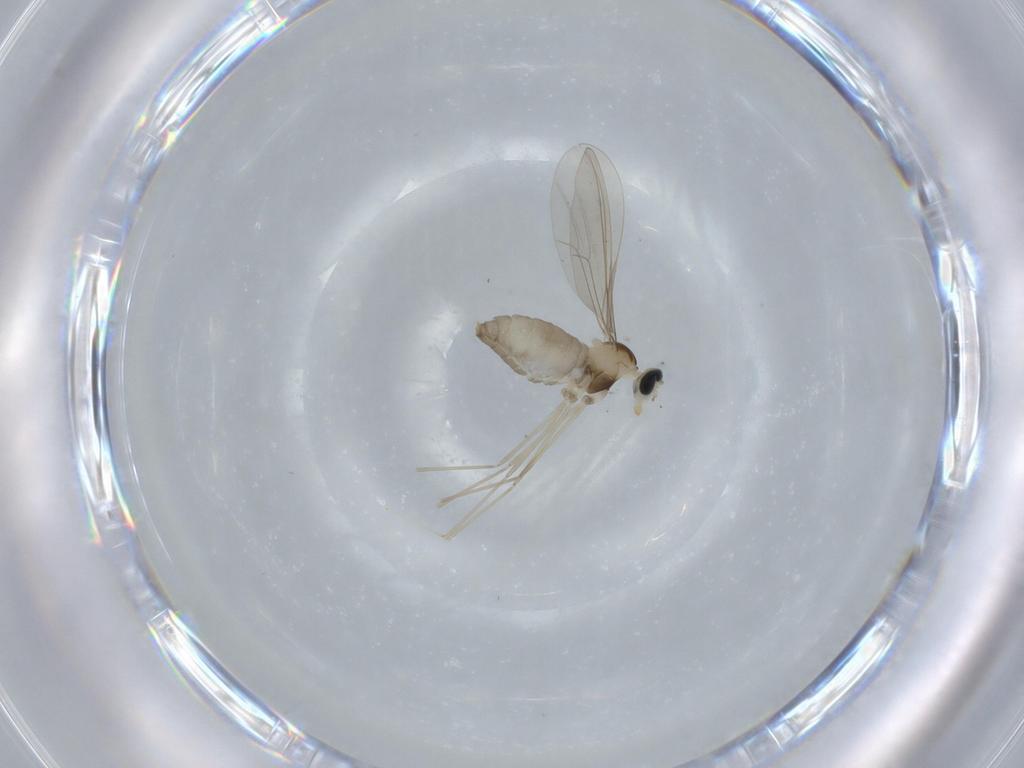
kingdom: Animalia
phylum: Arthropoda
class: Insecta
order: Diptera
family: Cecidomyiidae
